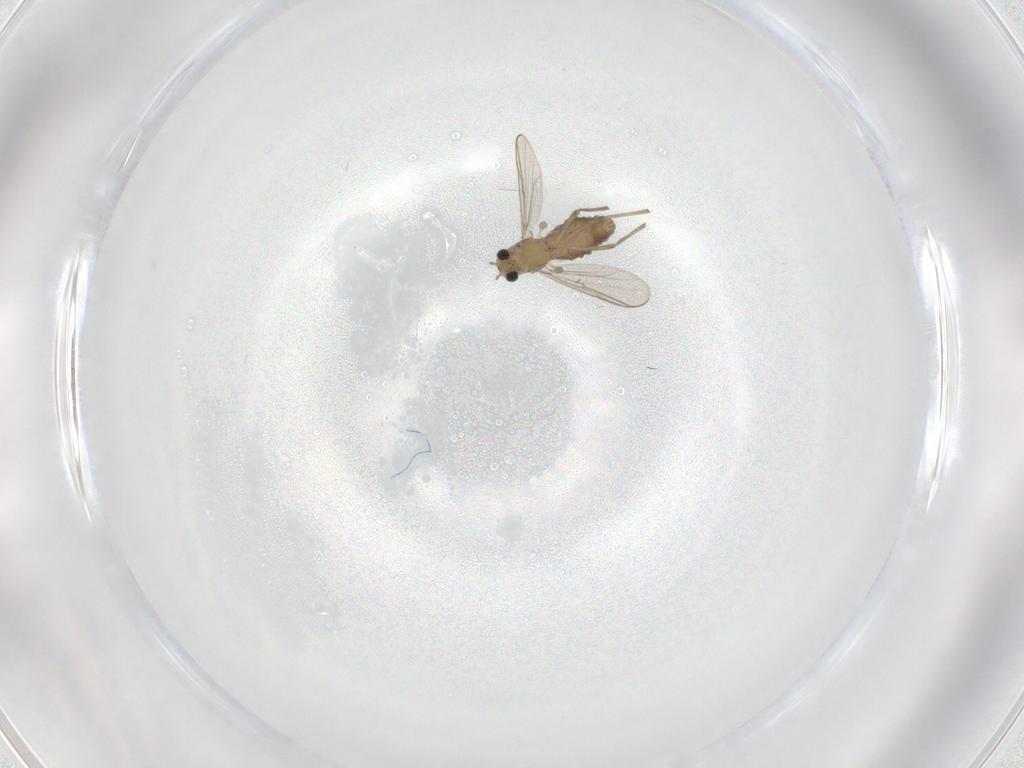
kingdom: Animalia
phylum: Arthropoda
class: Insecta
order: Diptera
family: Chironomidae
